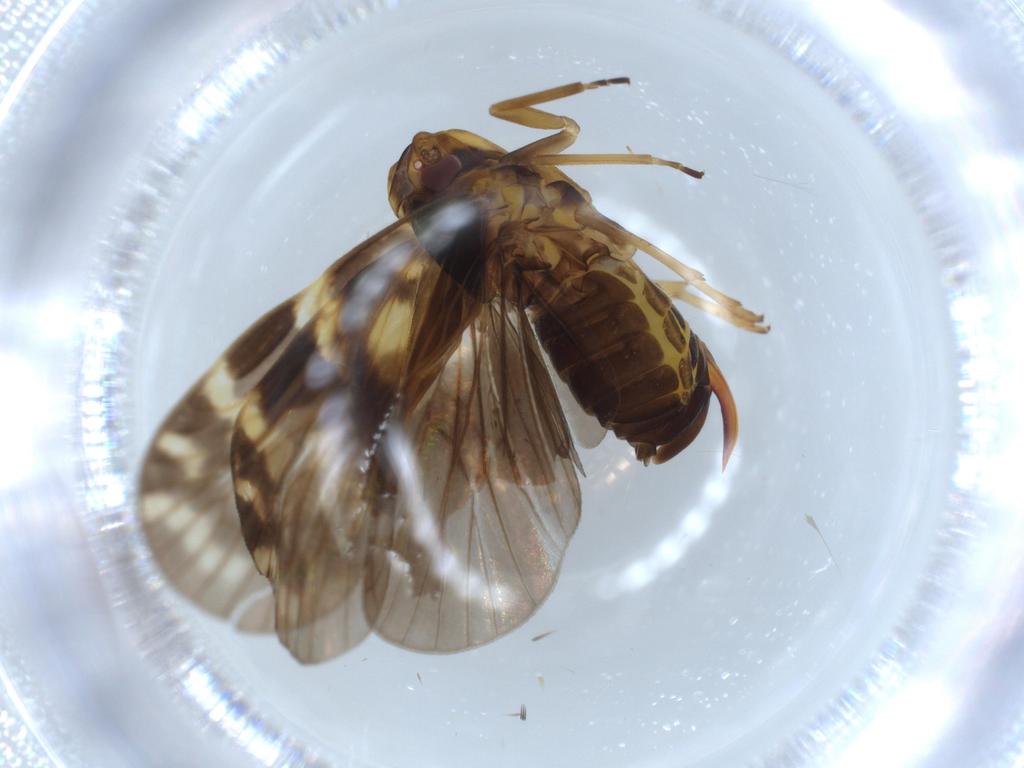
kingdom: Animalia
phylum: Arthropoda
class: Insecta
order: Hemiptera
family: Cixiidae
